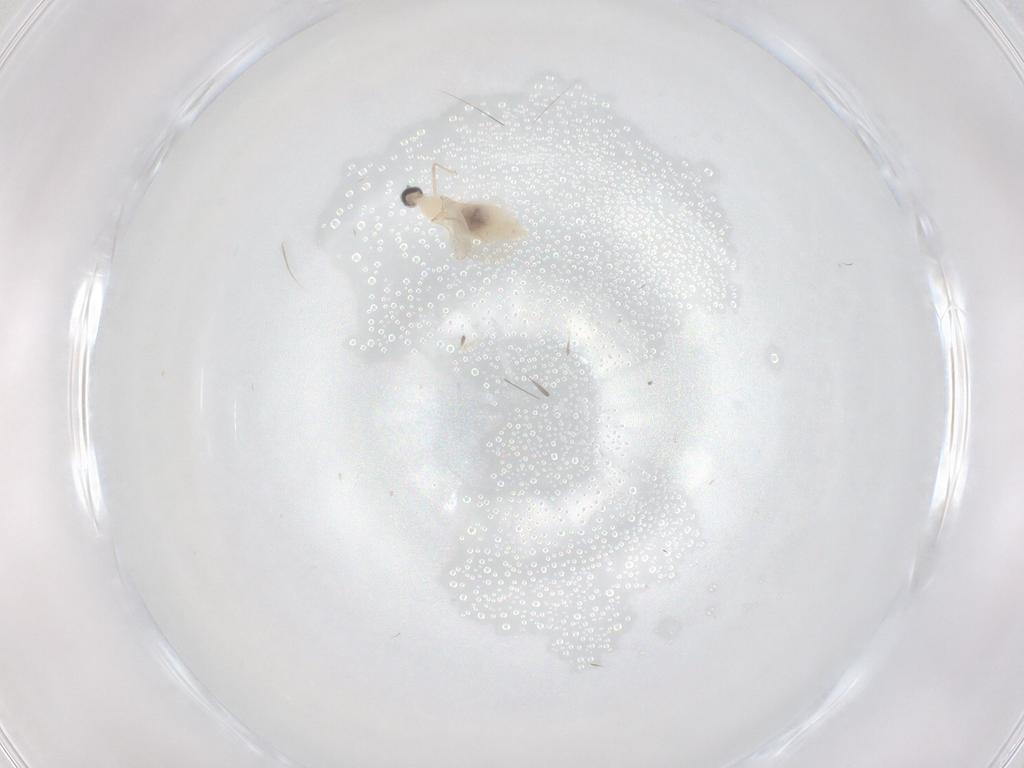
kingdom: Animalia
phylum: Arthropoda
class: Insecta
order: Diptera
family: Cecidomyiidae
